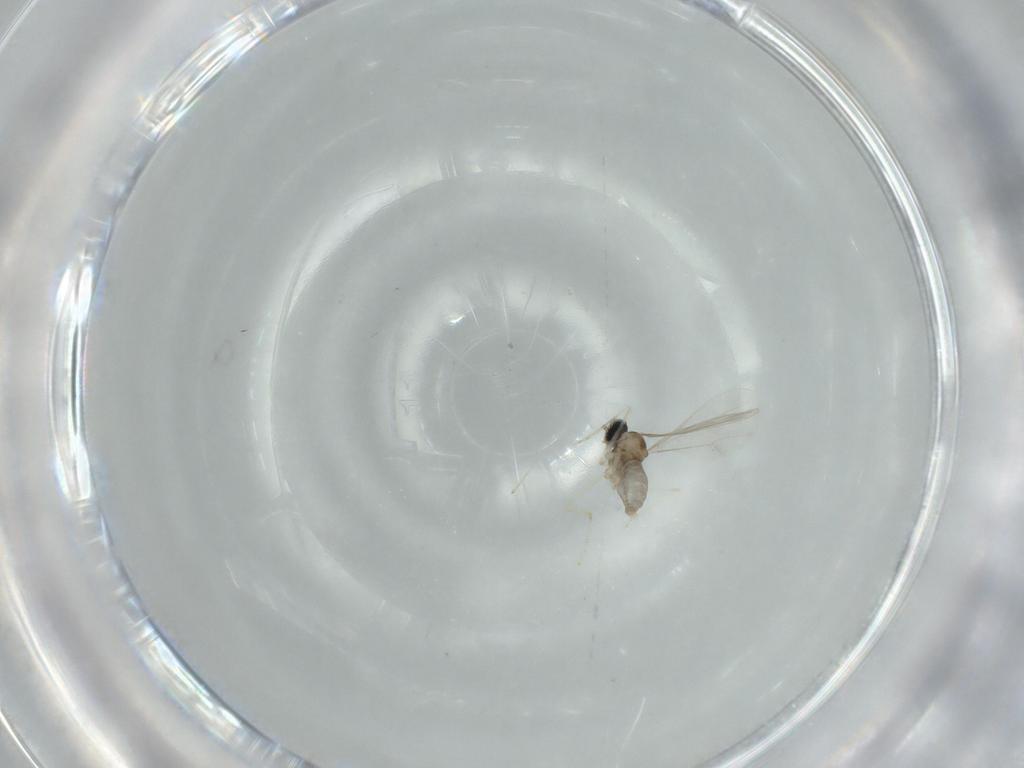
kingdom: Animalia
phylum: Arthropoda
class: Insecta
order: Diptera
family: Cecidomyiidae
